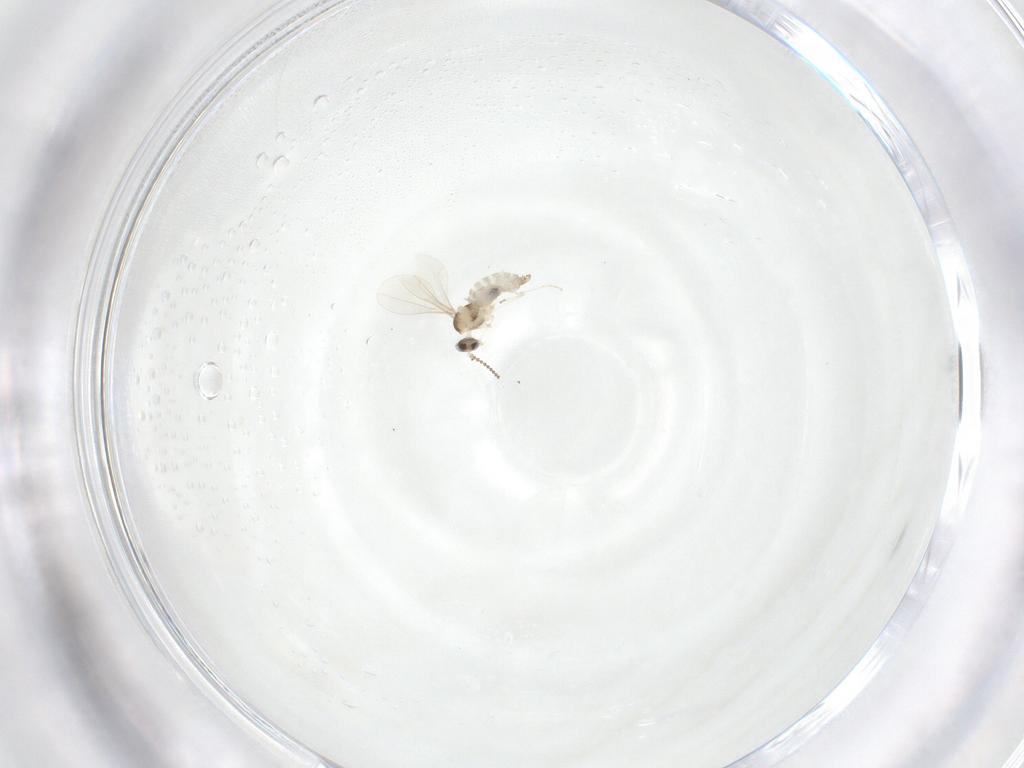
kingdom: Animalia
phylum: Arthropoda
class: Insecta
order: Diptera
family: Cecidomyiidae
